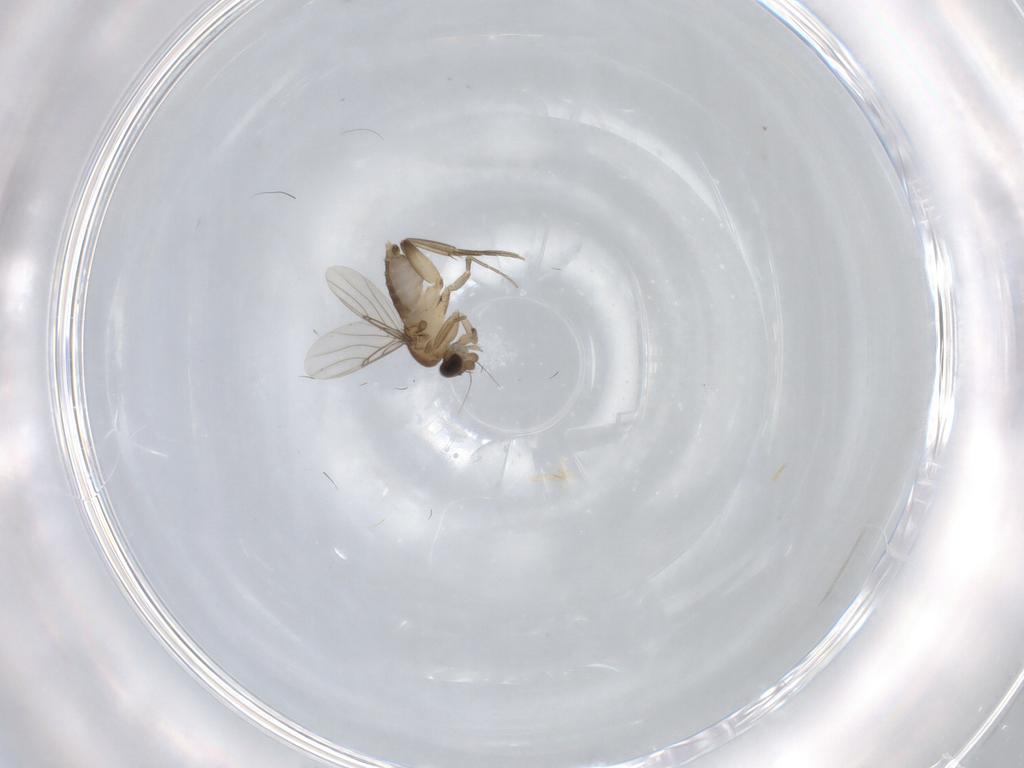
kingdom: Animalia
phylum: Arthropoda
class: Insecta
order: Diptera
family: Phoridae
